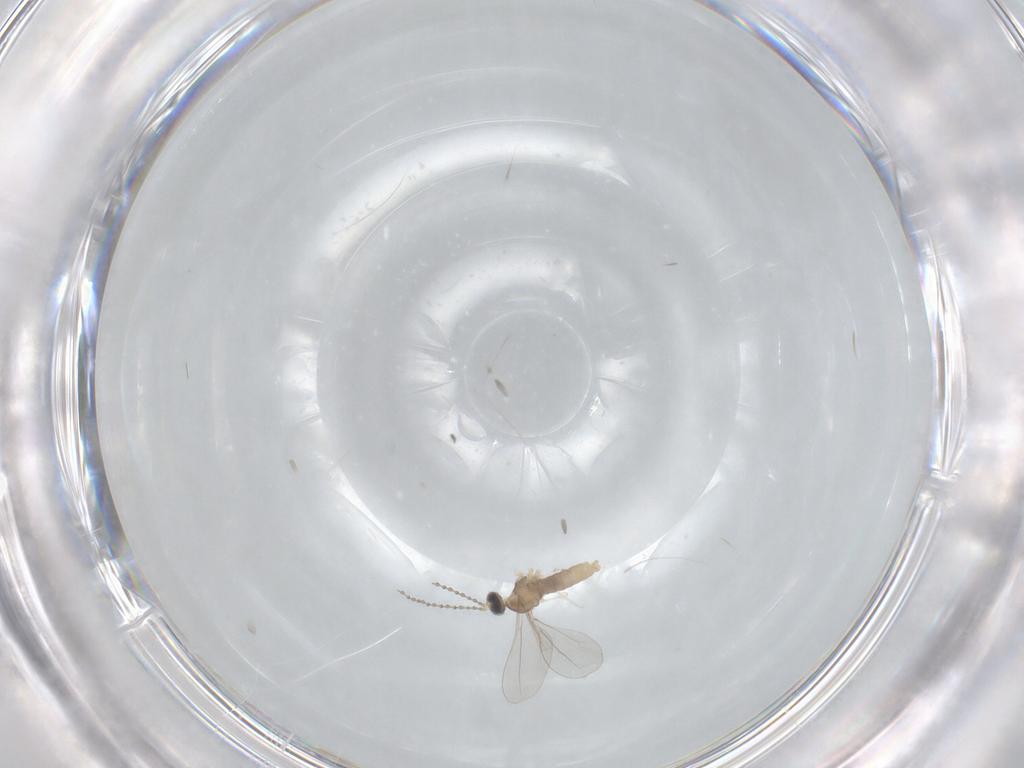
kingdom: Animalia
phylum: Arthropoda
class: Insecta
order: Diptera
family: Cecidomyiidae
